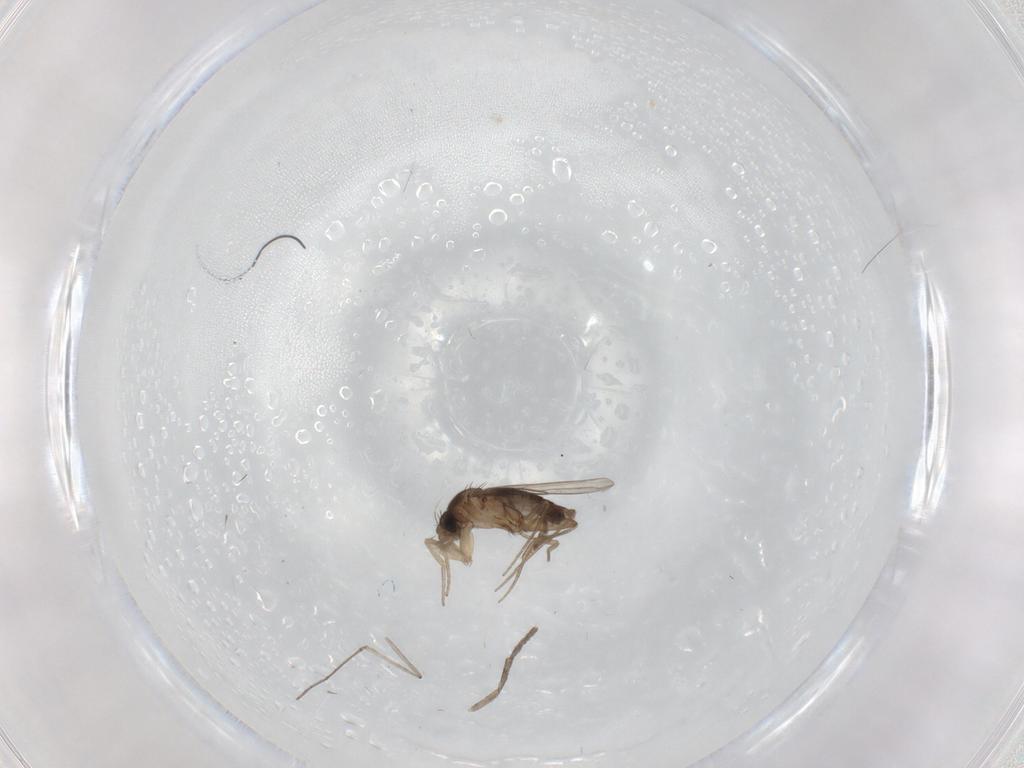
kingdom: Animalia
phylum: Arthropoda
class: Insecta
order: Diptera
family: Phoridae
